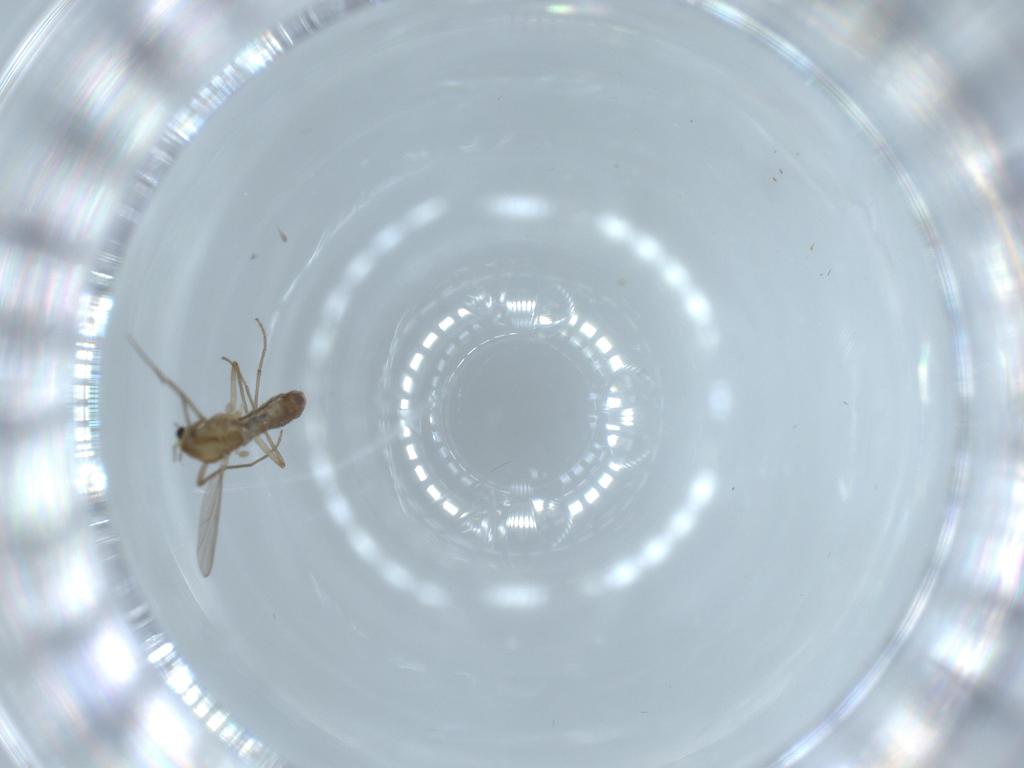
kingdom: Animalia
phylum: Arthropoda
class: Insecta
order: Diptera
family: Chironomidae
